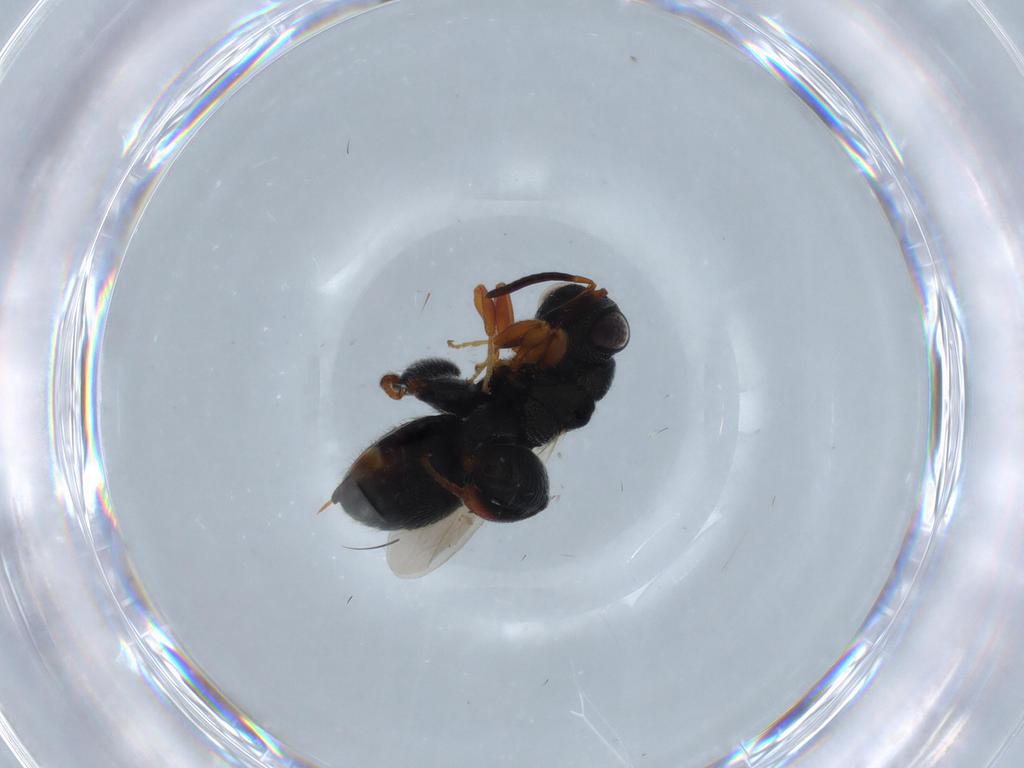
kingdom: Animalia
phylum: Arthropoda
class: Insecta
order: Hymenoptera
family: Chalcididae
